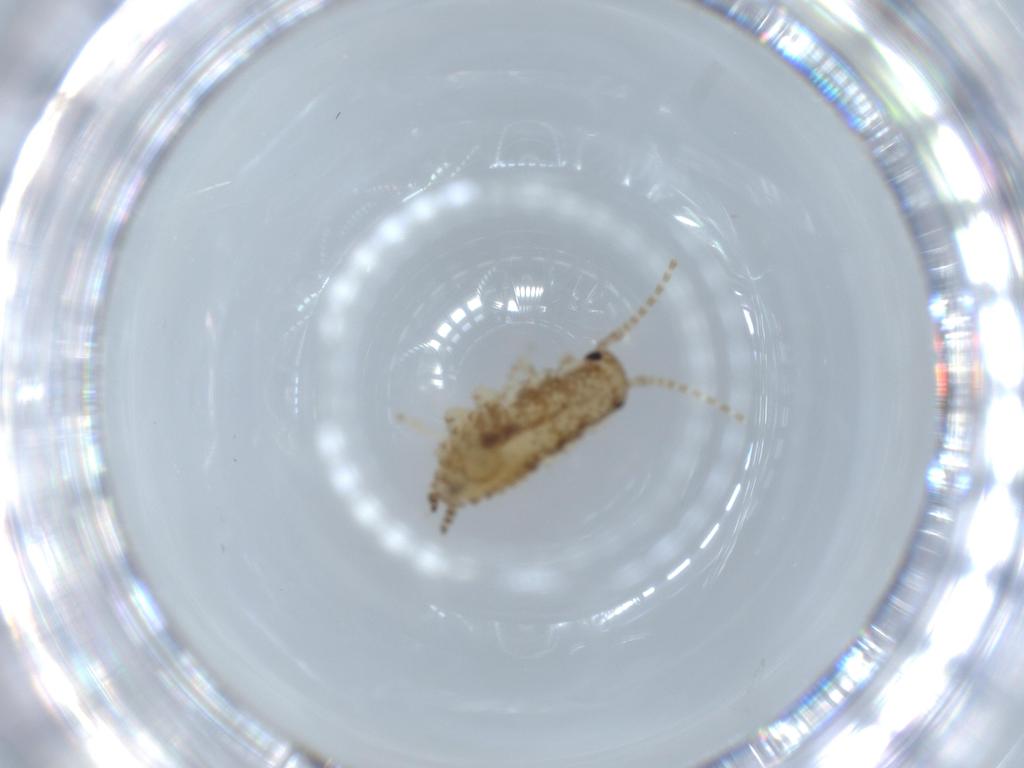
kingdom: Animalia
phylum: Arthropoda
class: Insecta
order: Blattodea
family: Ectobiidae
